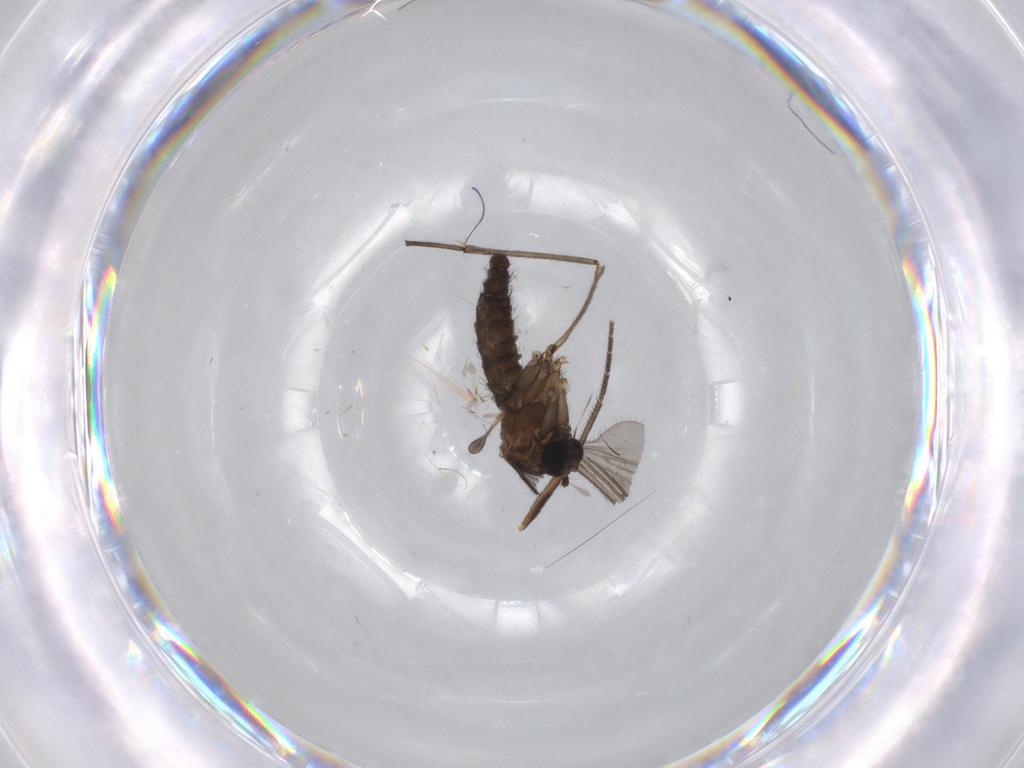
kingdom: Animalia
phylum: Arthropoda
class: Insecta
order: Diptera
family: Sciaridae
